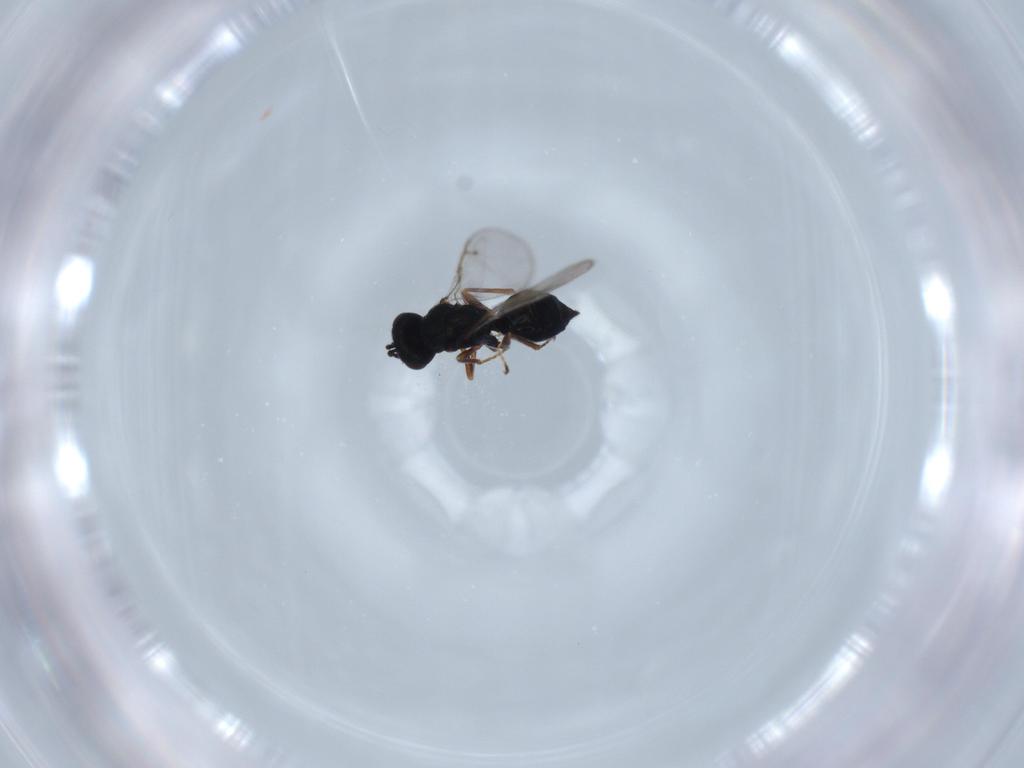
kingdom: Animalia
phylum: Arthropoda
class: Insecta
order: Hymenoptera
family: Pteromalidae
